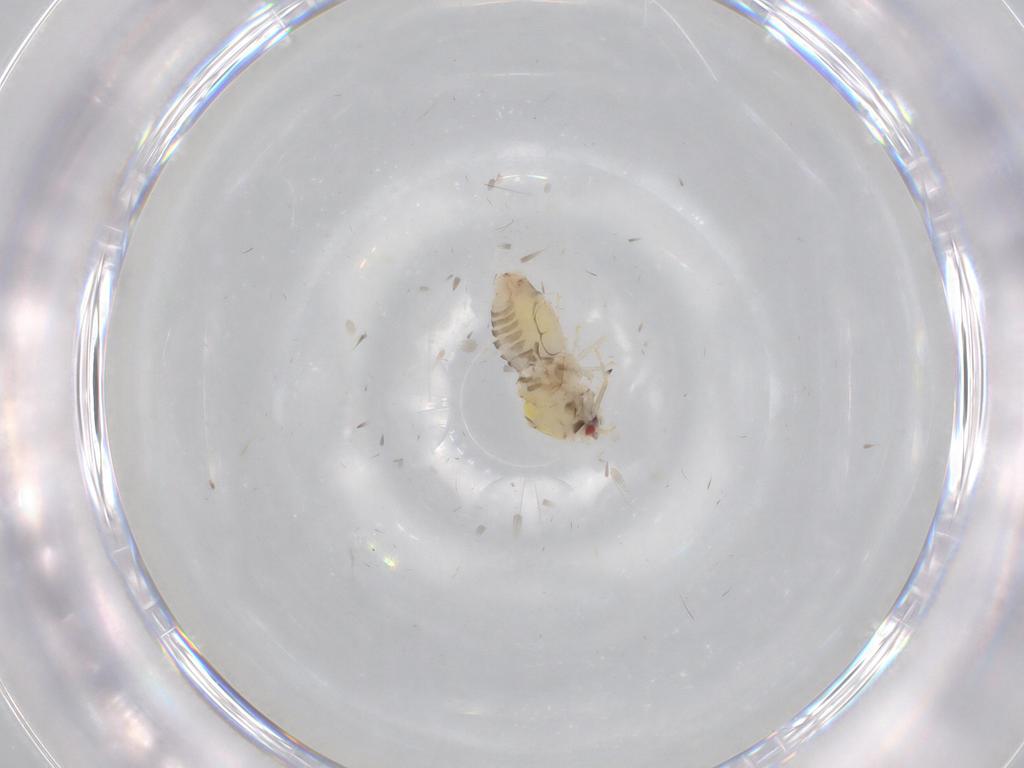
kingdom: Animalia
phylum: Arthropoda
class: Insecta
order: Hemiptera
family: Aleyrodidae
